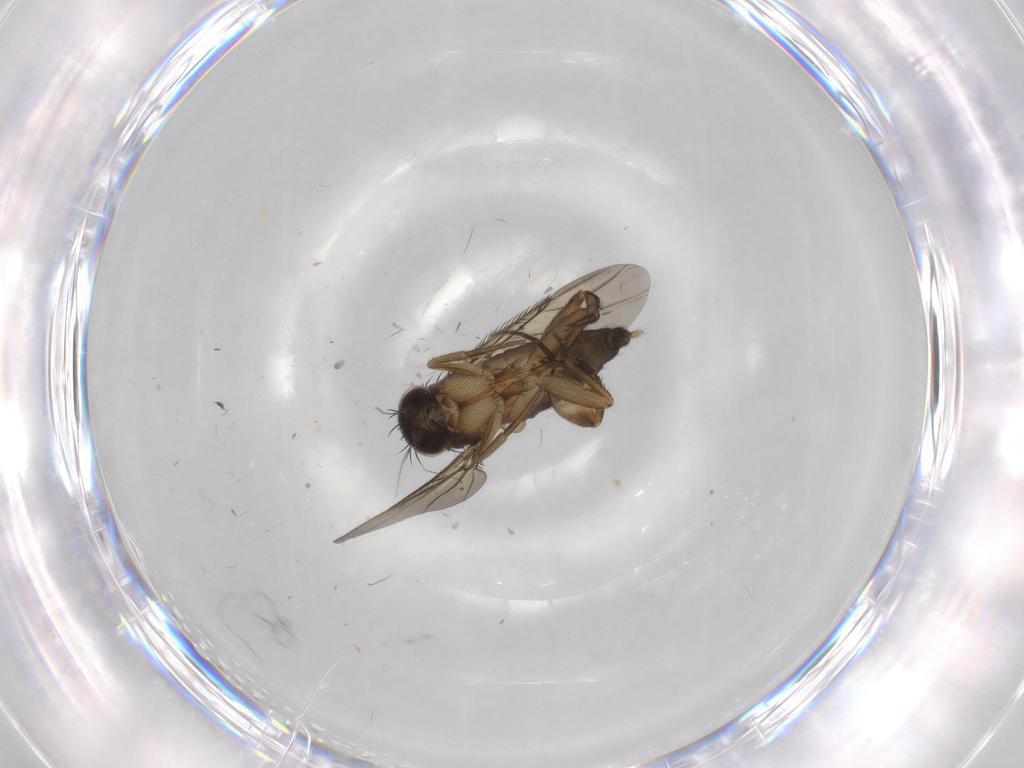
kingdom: Animalia
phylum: Arthropoda
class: Insecta
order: Diptera
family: Phoridae
